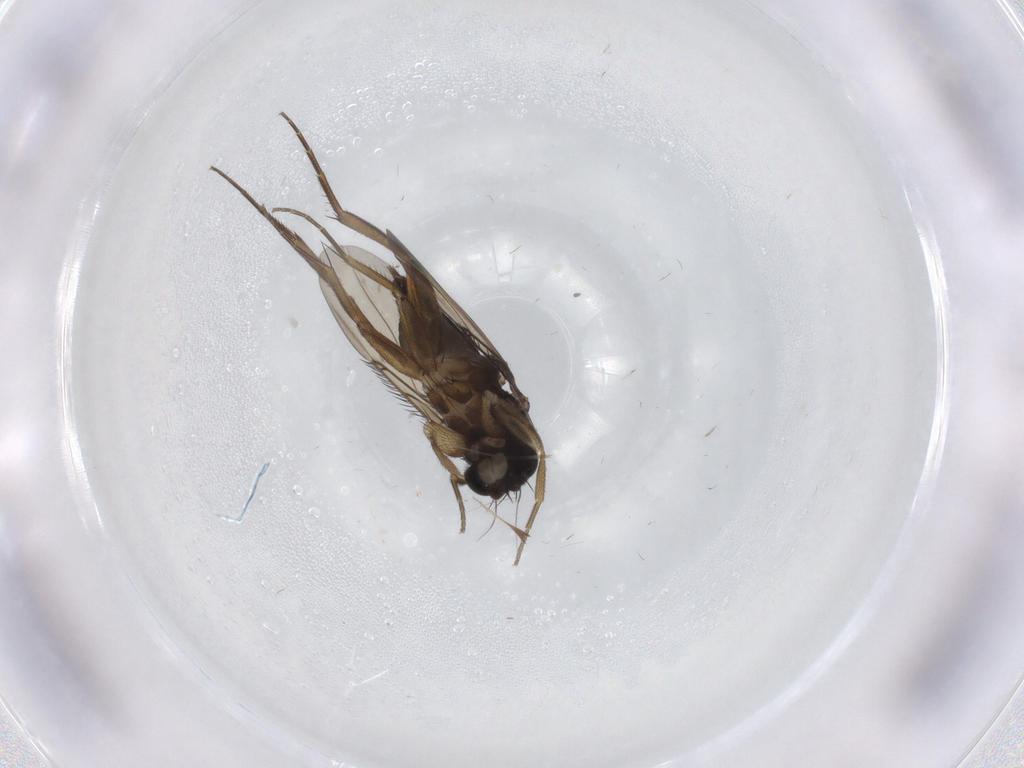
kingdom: Animalia
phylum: Arthropoda
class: Insecta
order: Diptera
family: Phoridae
